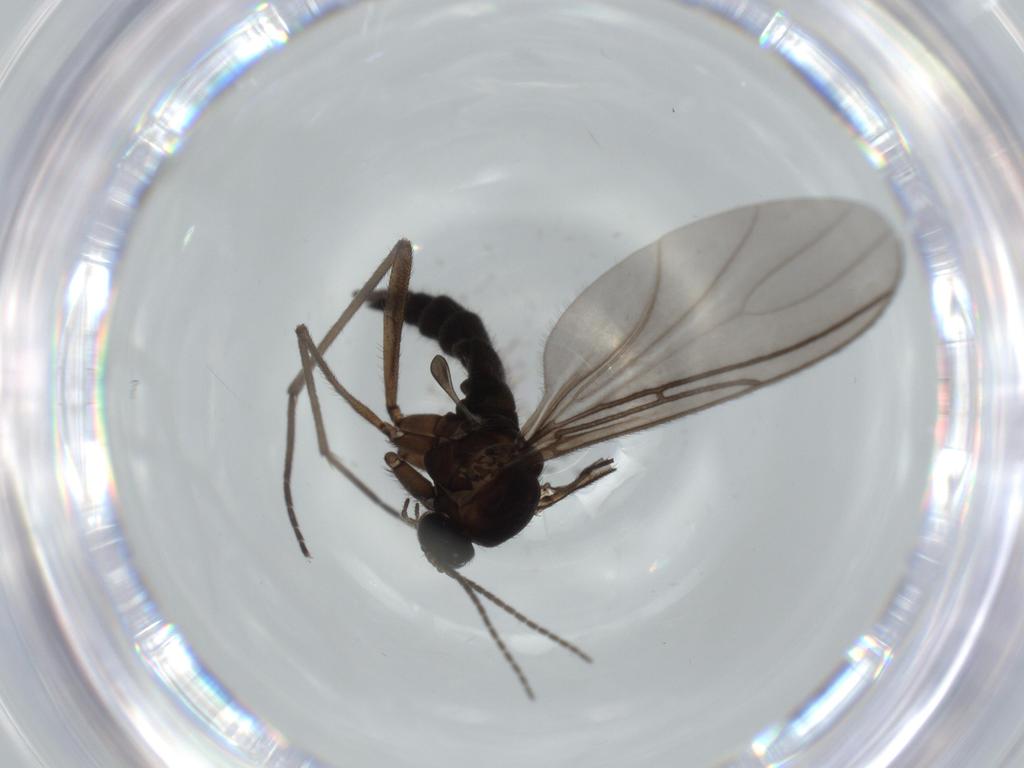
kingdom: Animalia
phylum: Arthropoda
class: Insecta
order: Diptera
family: Sciaridae
